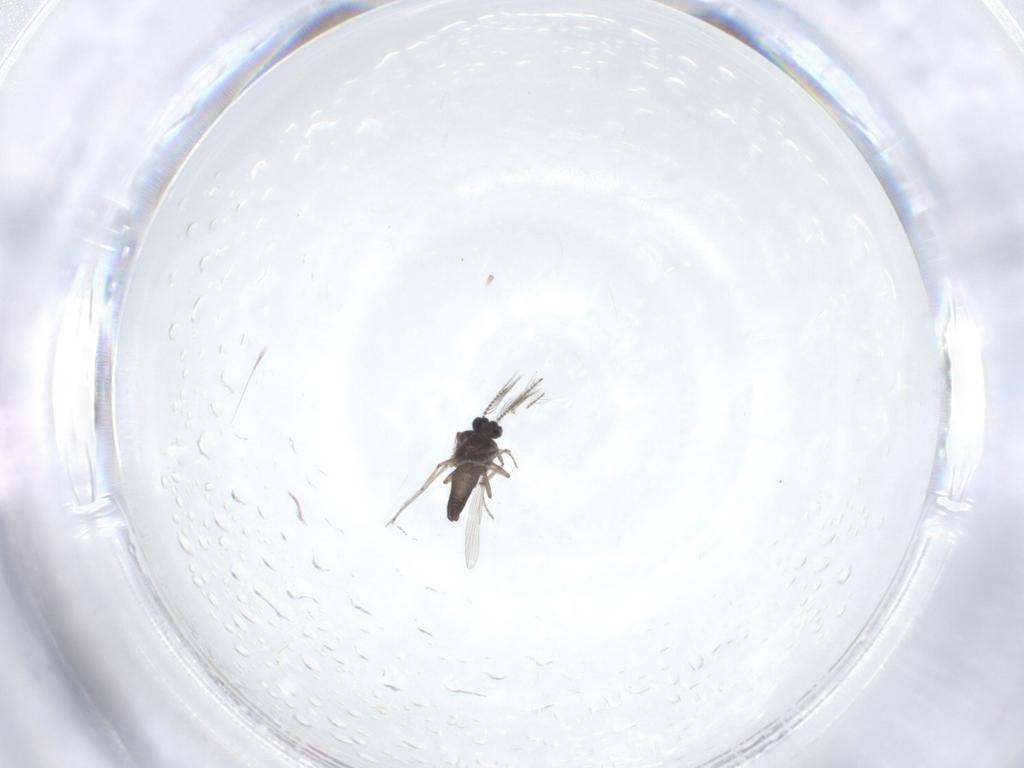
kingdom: Animalia
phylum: Arthropoda
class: Insecta
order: Diptera
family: Ceratopogonidae
